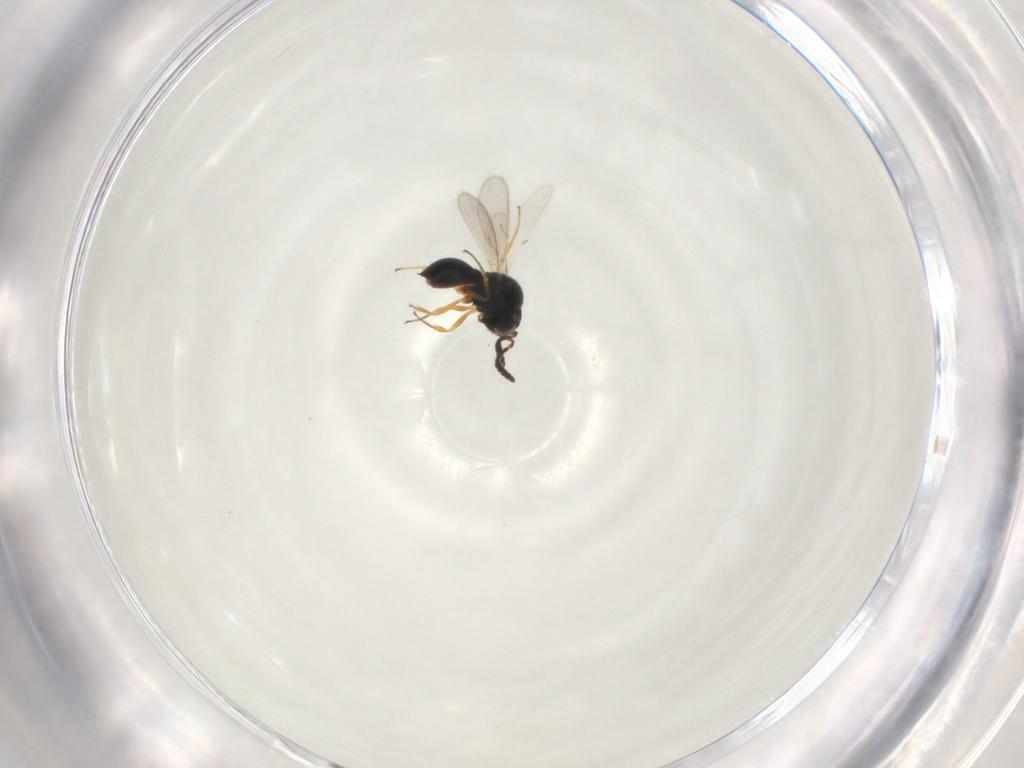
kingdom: Animalia
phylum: Arthropoda
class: Insecta
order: Hymenoptera
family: Scelionidae
